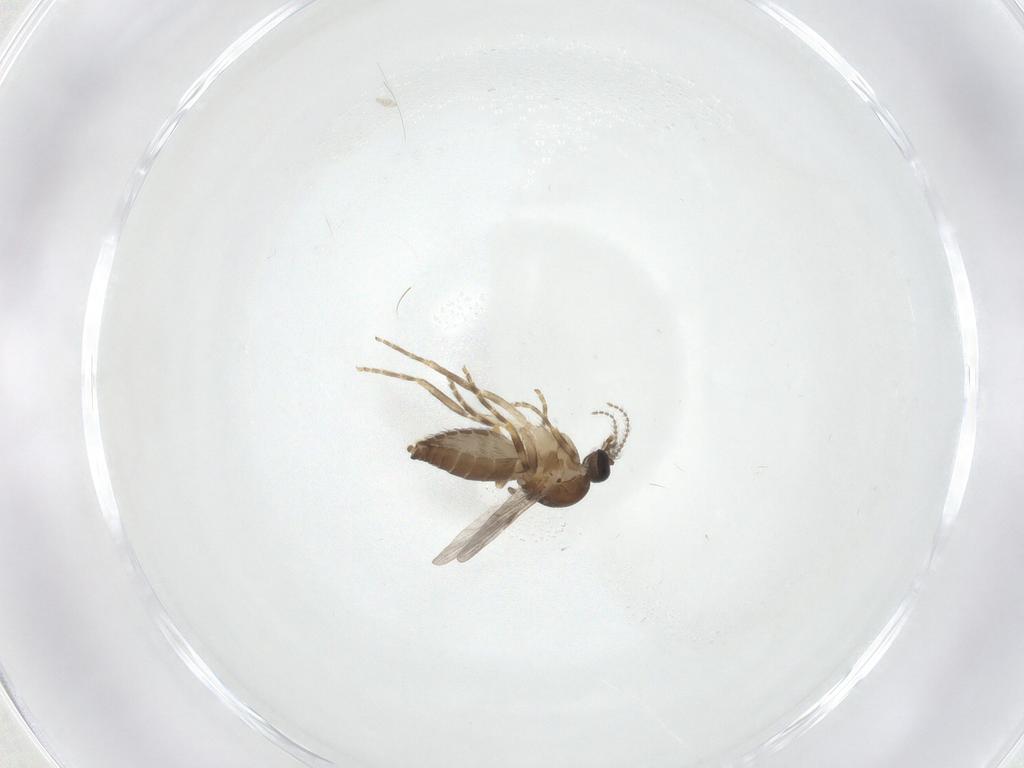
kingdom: Animalia
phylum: Arthropoda
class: Insecta
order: Diptera
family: Ceratopogonidae
